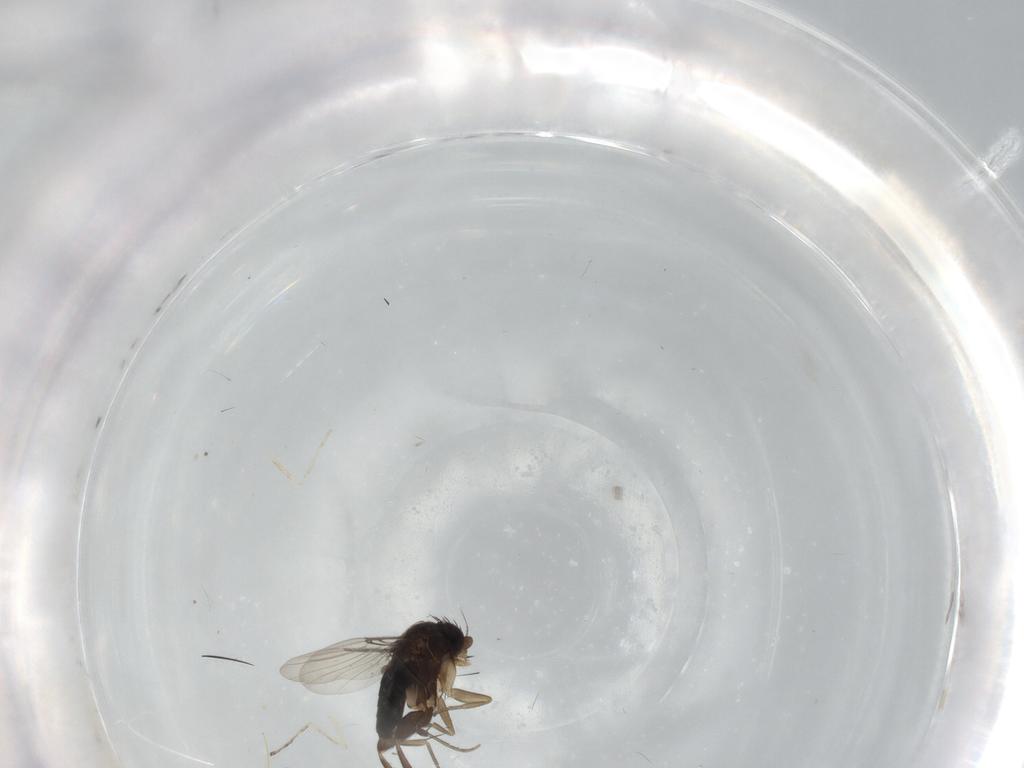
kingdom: Animalia
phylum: Arthropoda
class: Insecta
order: Diptera
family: Phoridae
